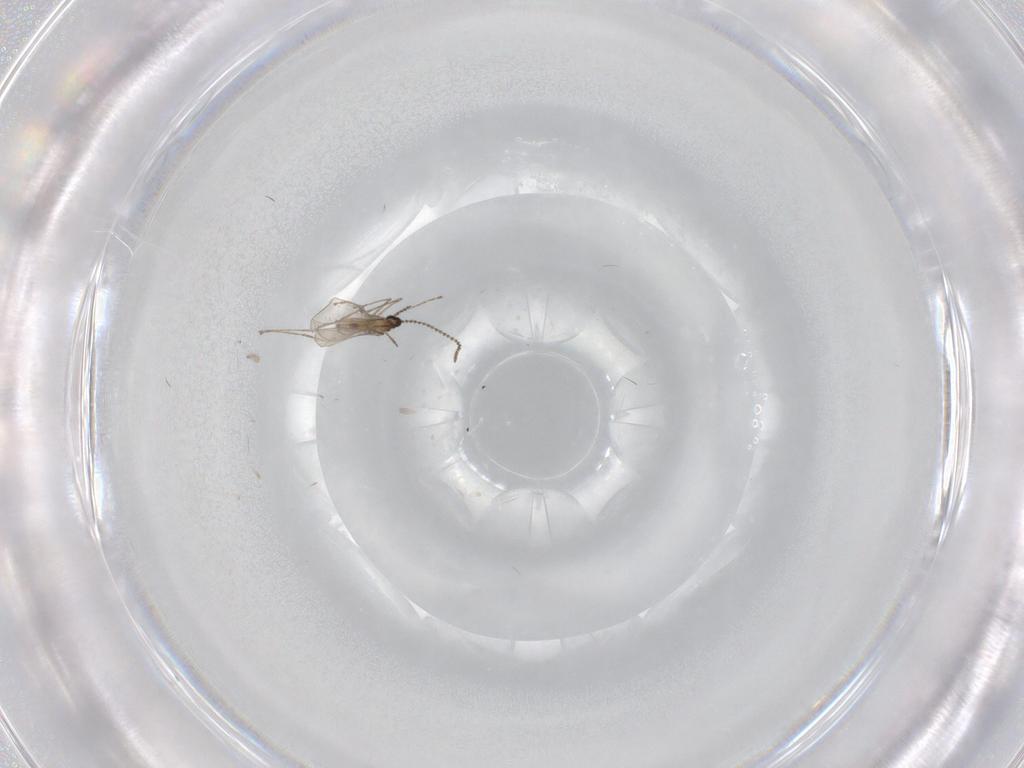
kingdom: Animalia
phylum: Arthropoda
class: Insecta
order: Diptera
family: Cecidomyiidae
